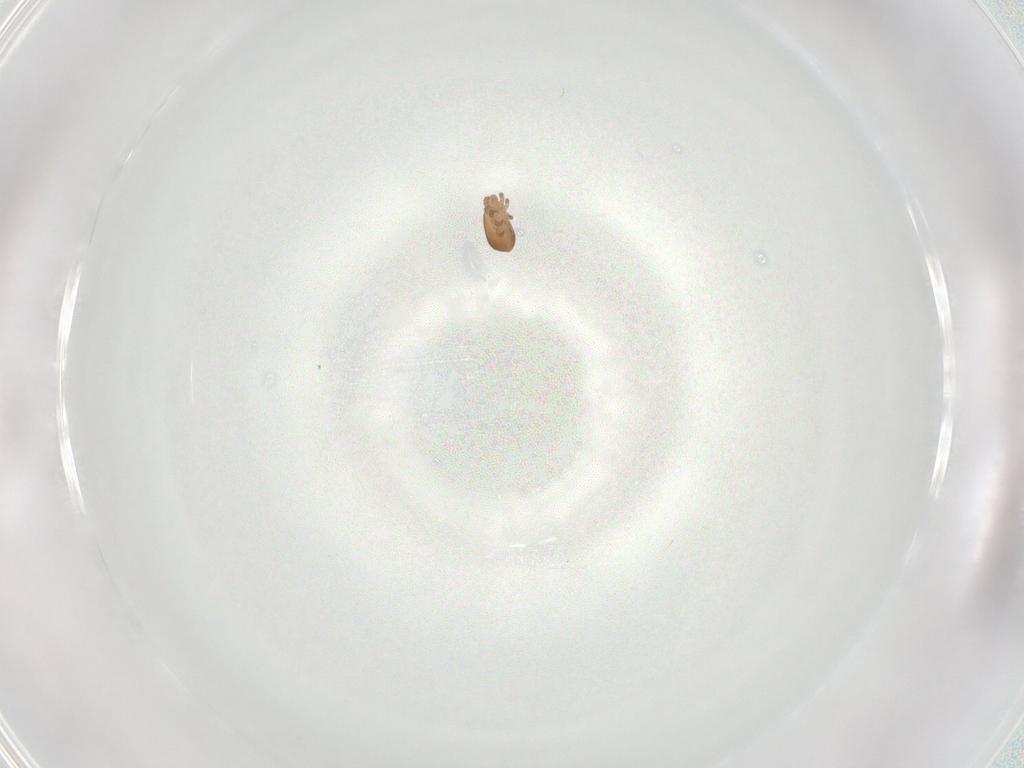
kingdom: Animalia
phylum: Arthropoda
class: Arachnida
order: Sarcoptiformes
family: Trhypochthoniidae
